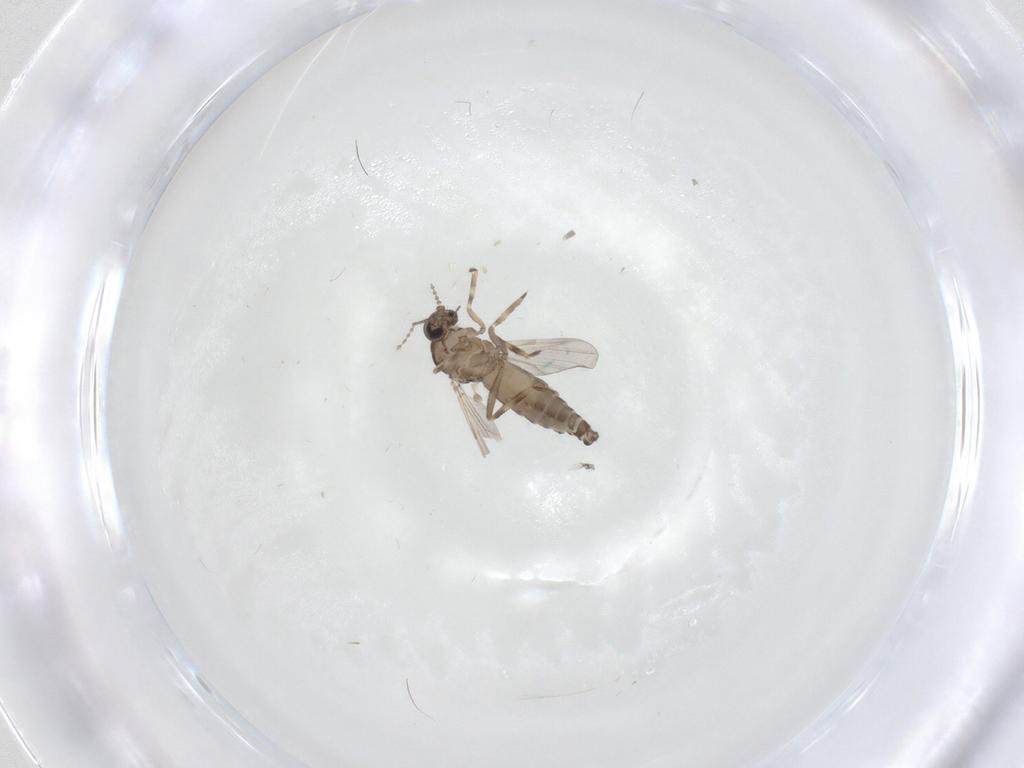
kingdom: Animalia
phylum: Arthropoda
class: Insecta
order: Diptera
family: Ceratopogonidae
